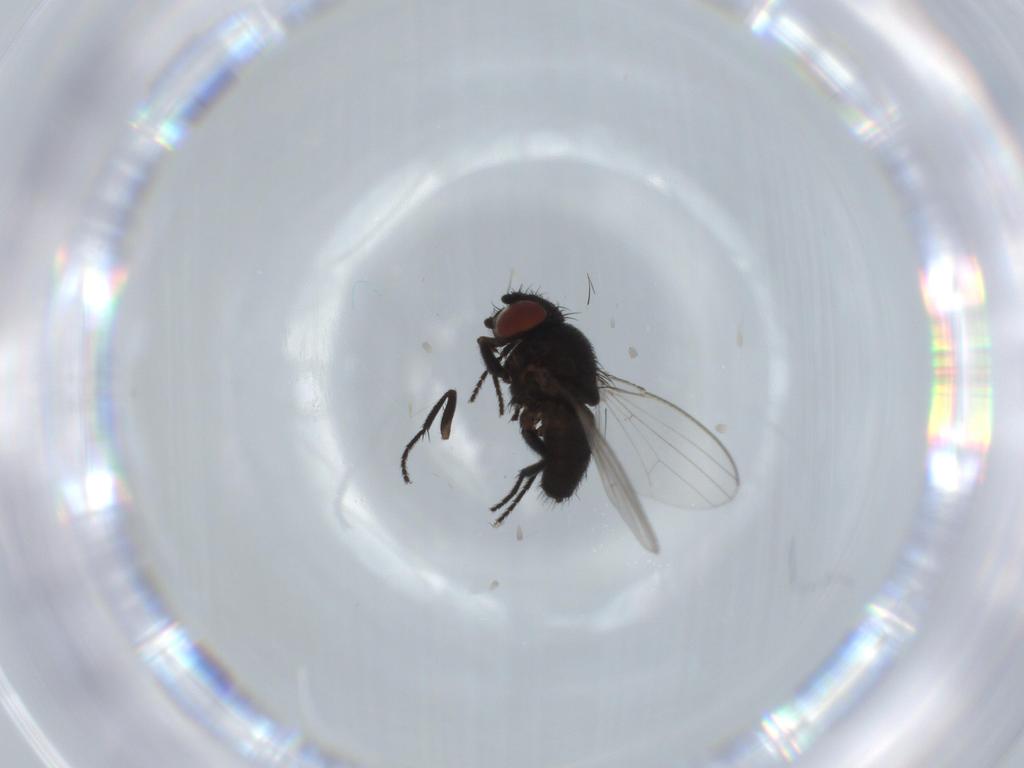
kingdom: Animalia
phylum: Arthropoda
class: Insecta
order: Diptera
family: Milichiidae
